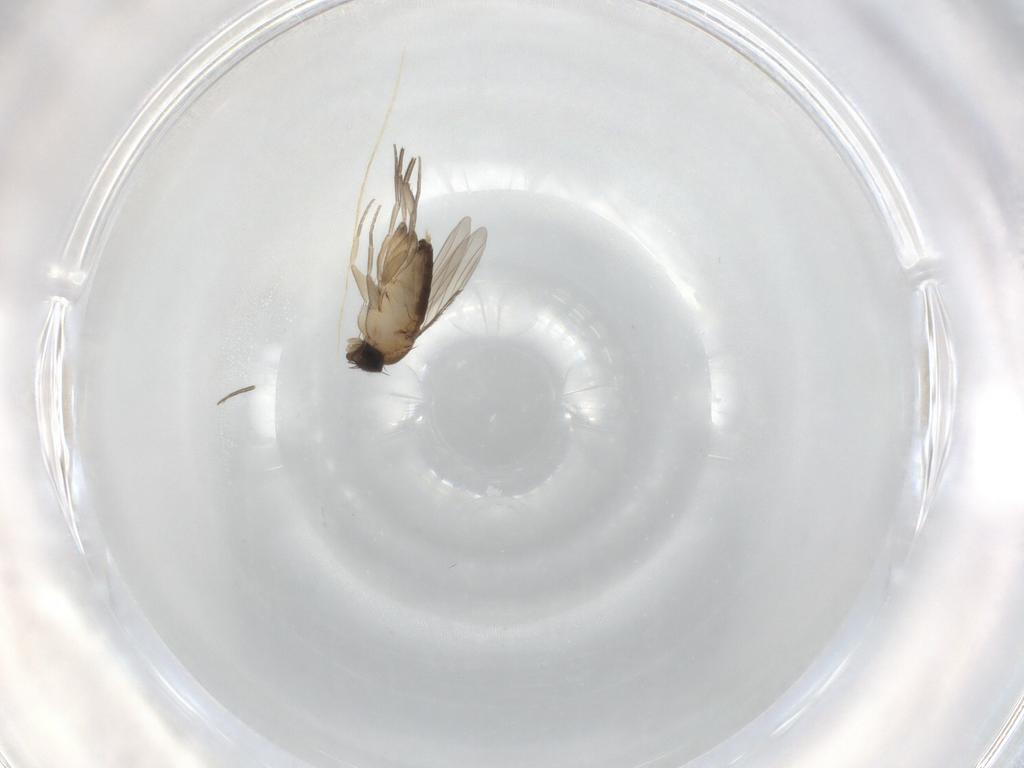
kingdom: Animalia
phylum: Arthropoda
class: Insecta
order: Diptera
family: Phoridae
